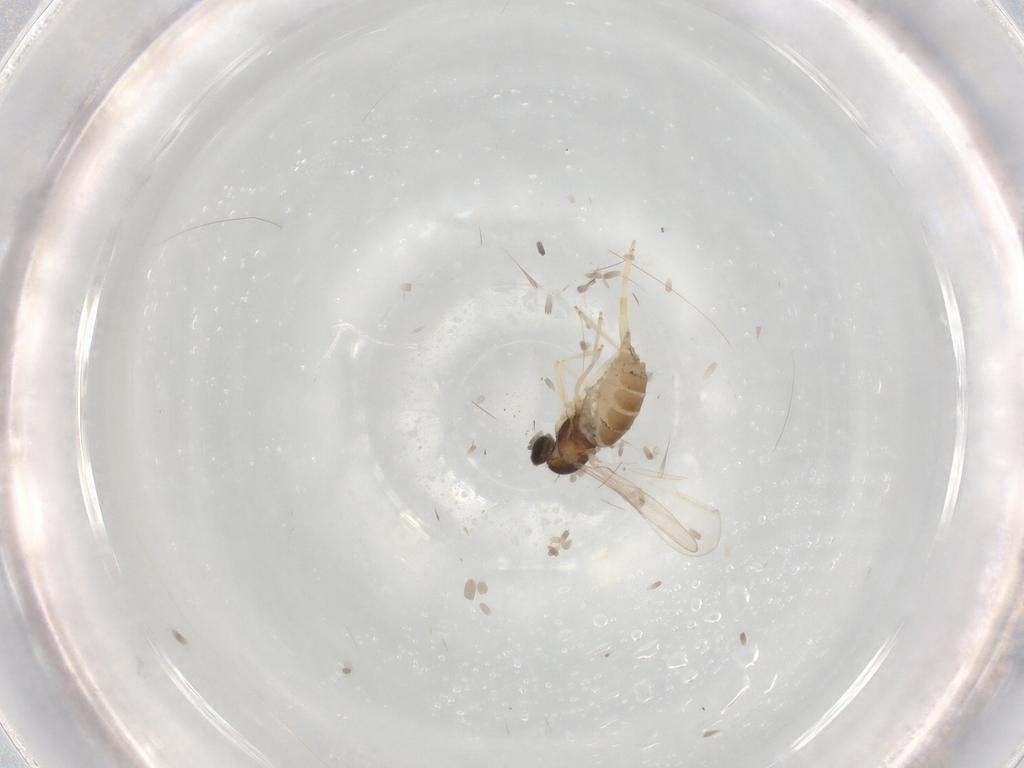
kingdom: Animalia
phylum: Arthropoda
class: Insecta
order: Diptera
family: Cecidomyiidae
